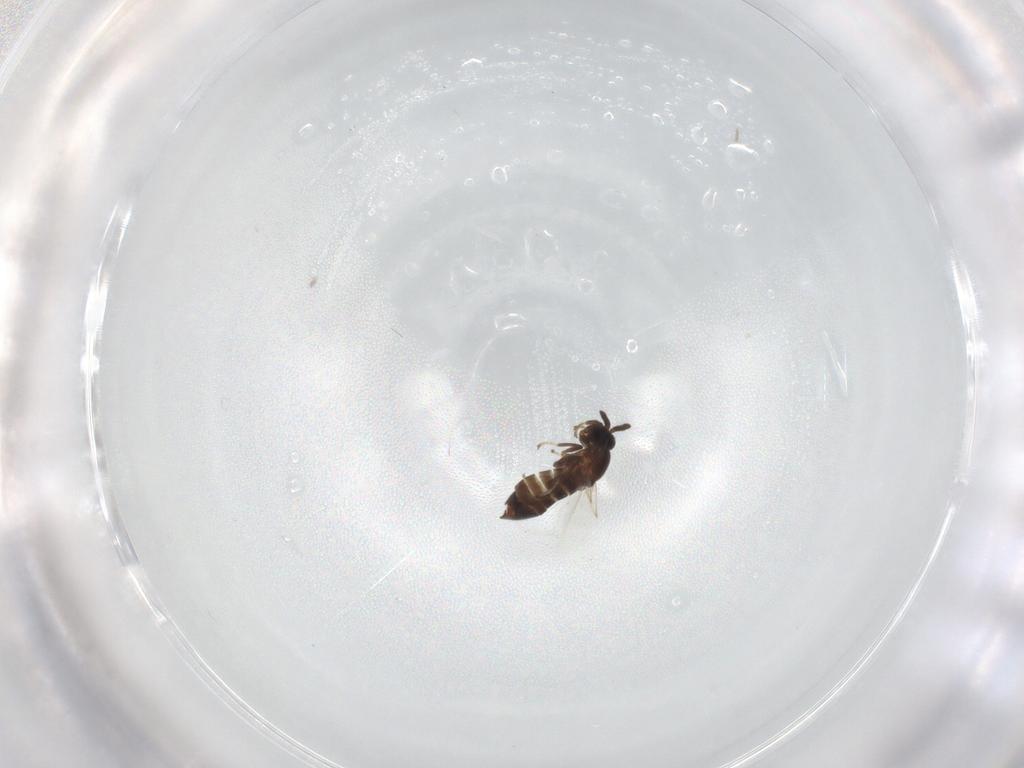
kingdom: Animalia
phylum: Arthropoda
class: Insecta
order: Diptera
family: Scatopsidae
